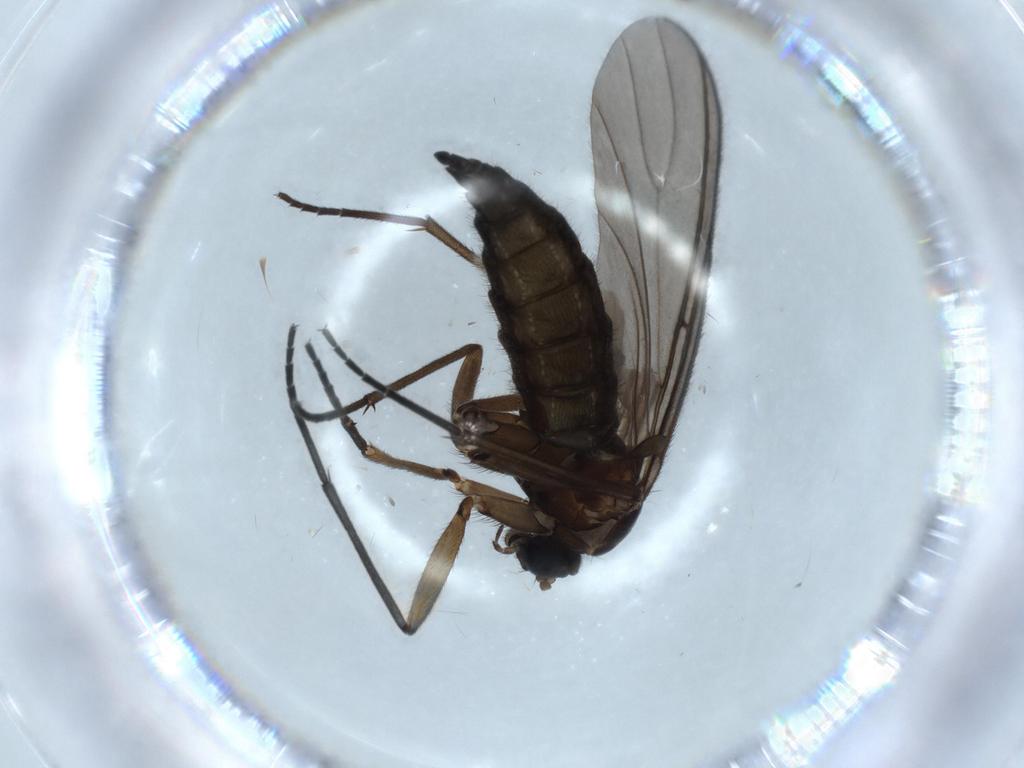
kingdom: Animalia
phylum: Arthropoda
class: Insecta
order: Diptera
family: Sciaridae
